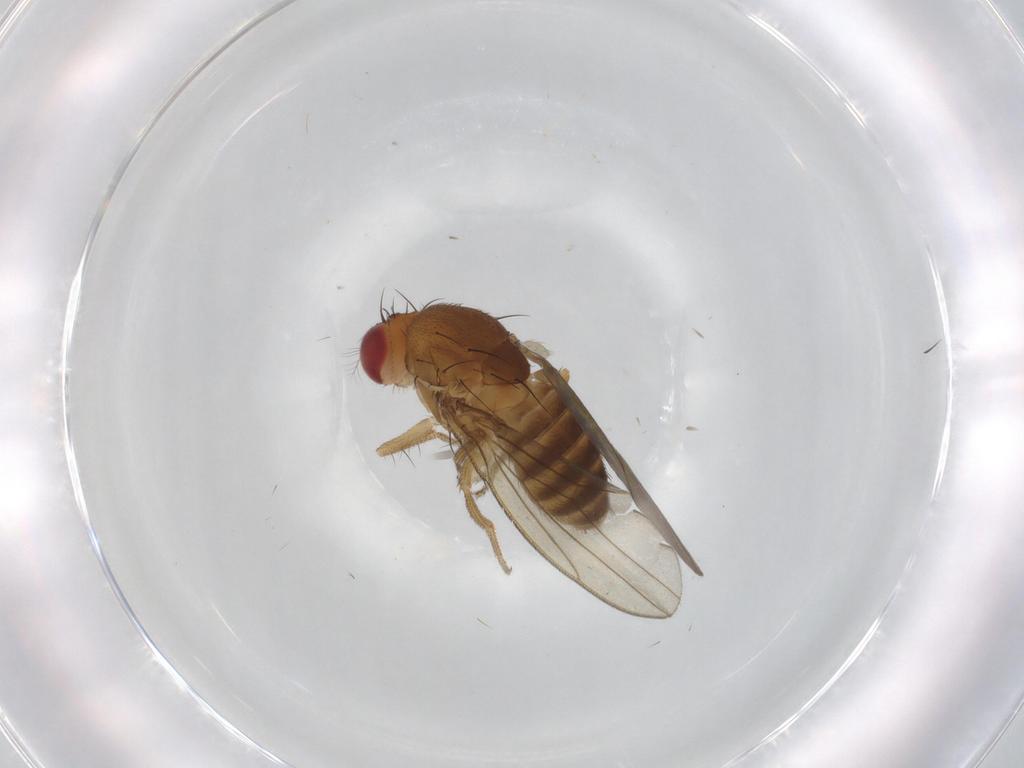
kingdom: Animalia
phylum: Arthropoda
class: Insecta
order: Diptera
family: Drosophilidae
